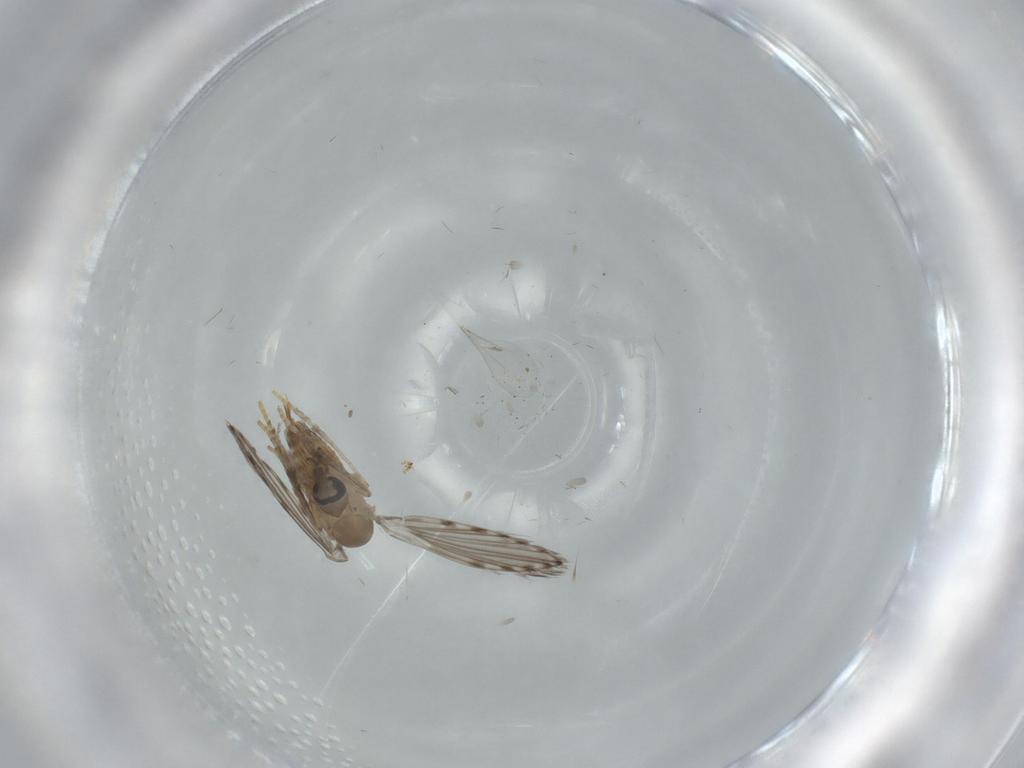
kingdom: Animalia
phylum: Arthropoda
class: Insecta
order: Diptera
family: Psychodidae
